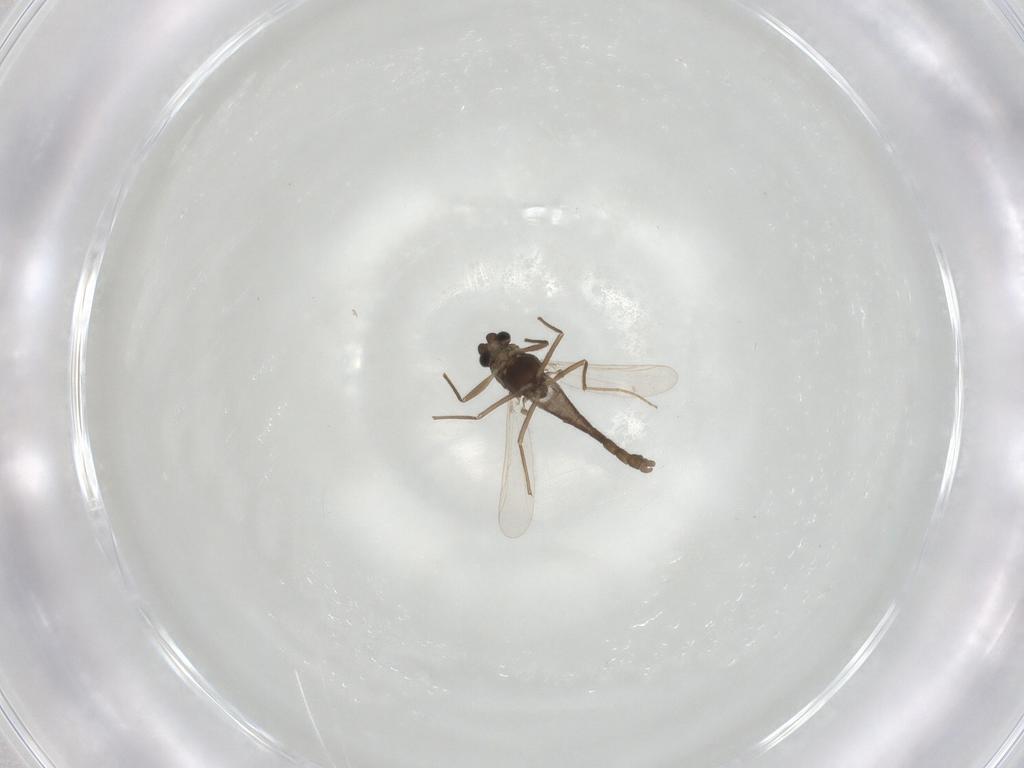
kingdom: Animalia
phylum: Arthropoda
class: Insecta
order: Diptera
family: Chironomidae
